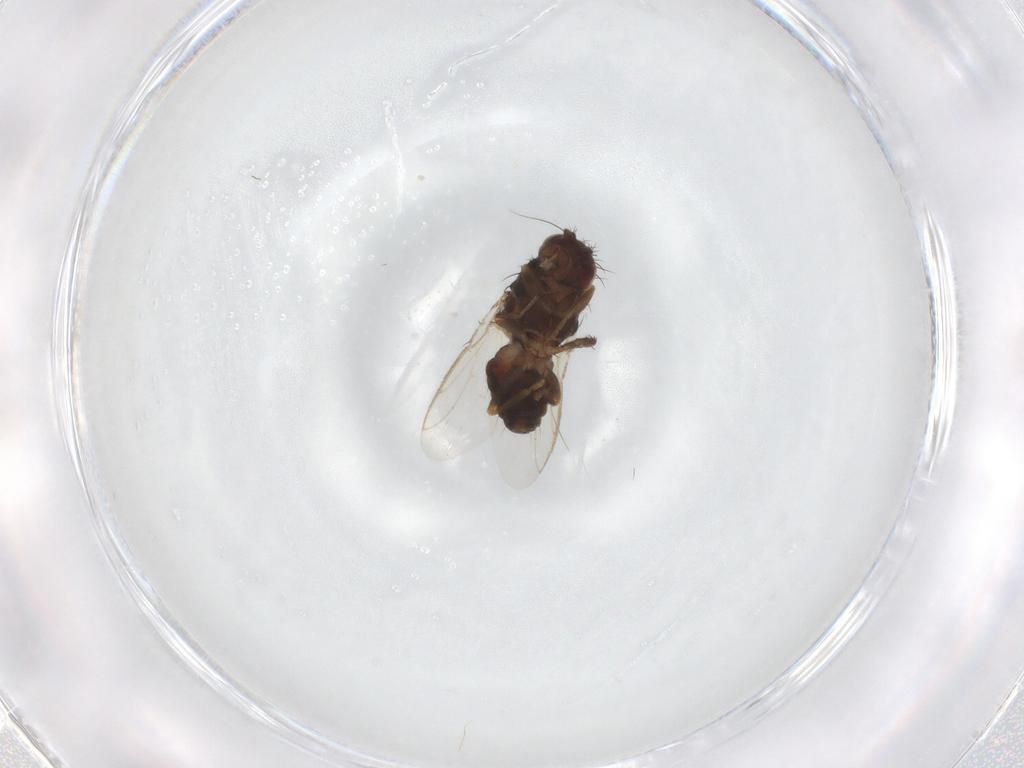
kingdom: Animalia
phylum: Arthropoda
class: Insecta
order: Diptera
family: Sphaeroceridae
